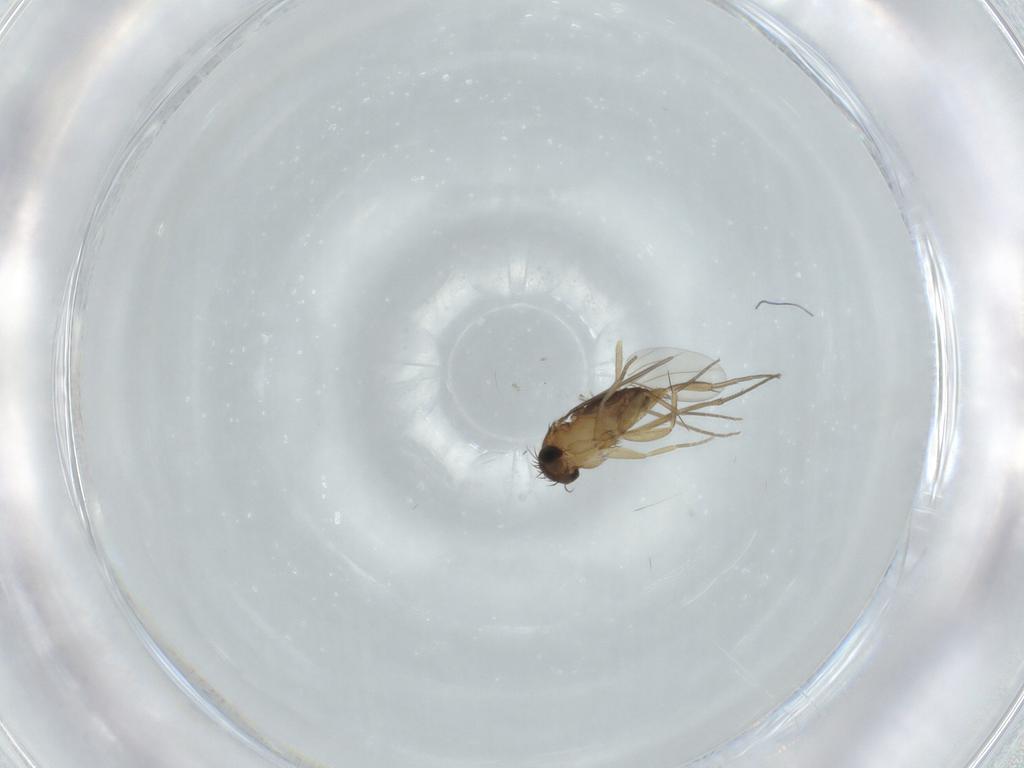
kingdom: Animalia
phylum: Arthropoda
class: Insecta
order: Diptera
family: Phoridae
